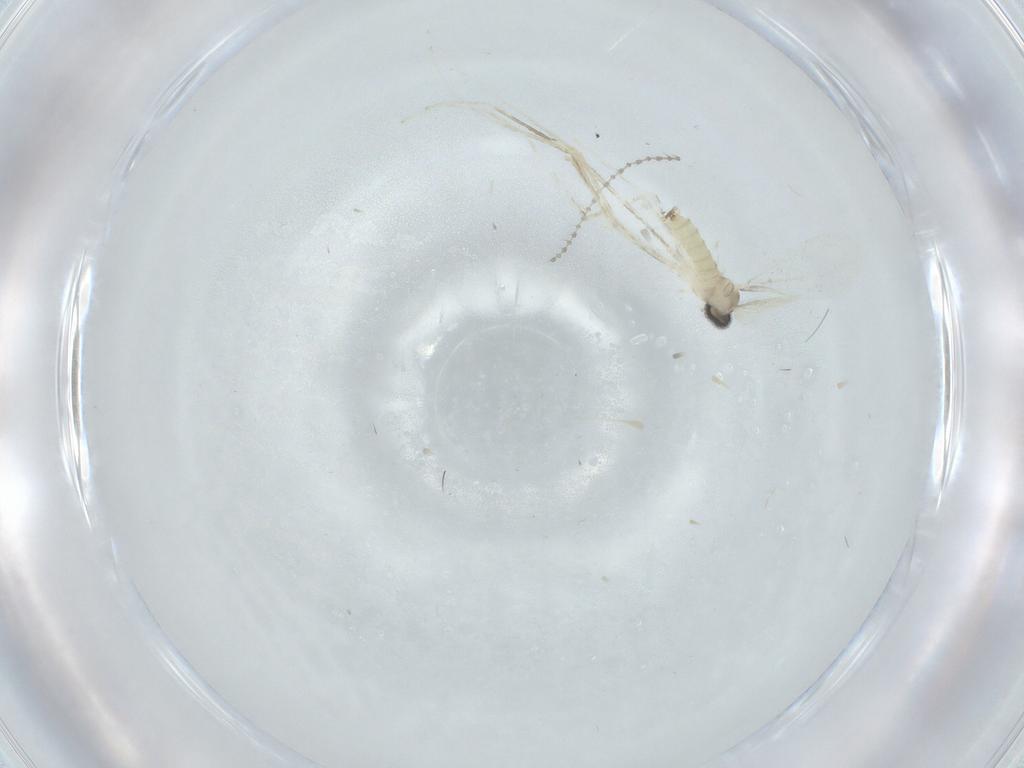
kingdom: Animalia
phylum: Arthropoda
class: Insecta
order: Diptera
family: Cecidomyiidae
